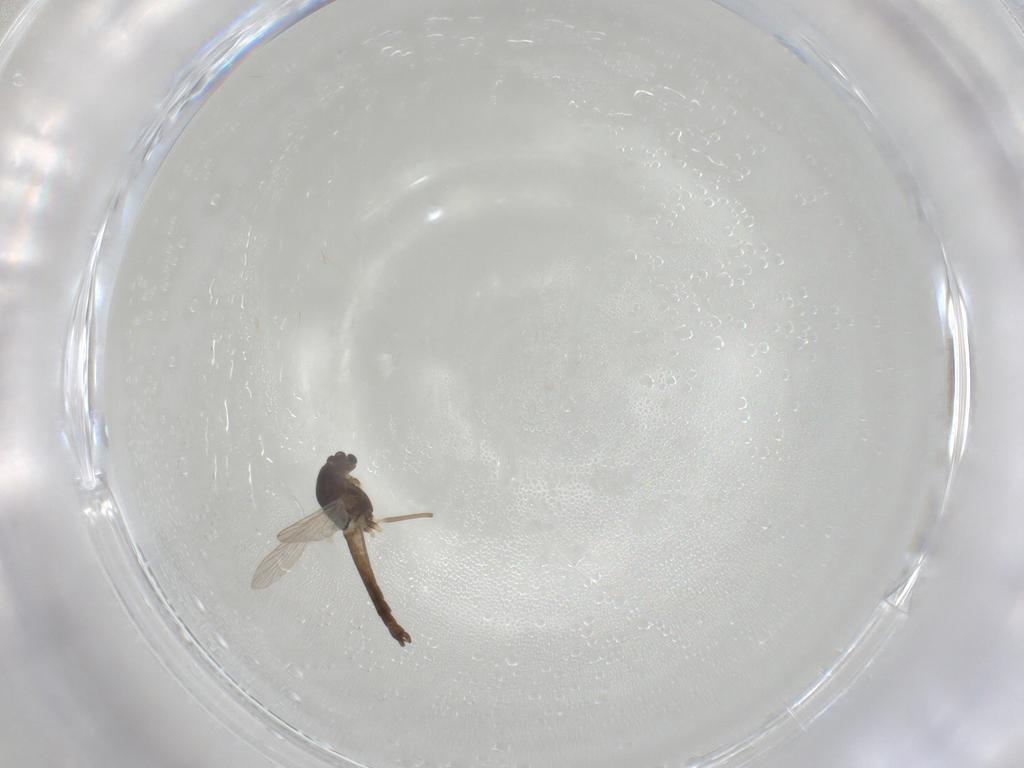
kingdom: Animalia
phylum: Arthropoda
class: Insecta
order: Diptera
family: Chironomidae
